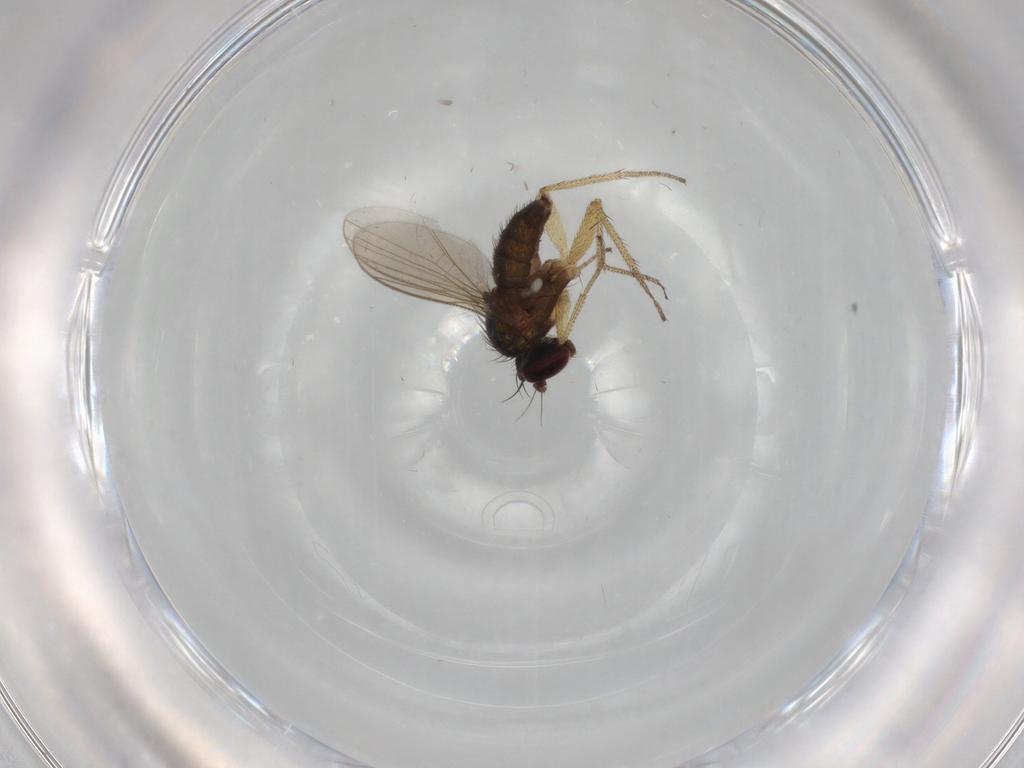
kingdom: Animalia
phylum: Arthropoda
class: Insecta
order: Diptera
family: Dolichopodidae
